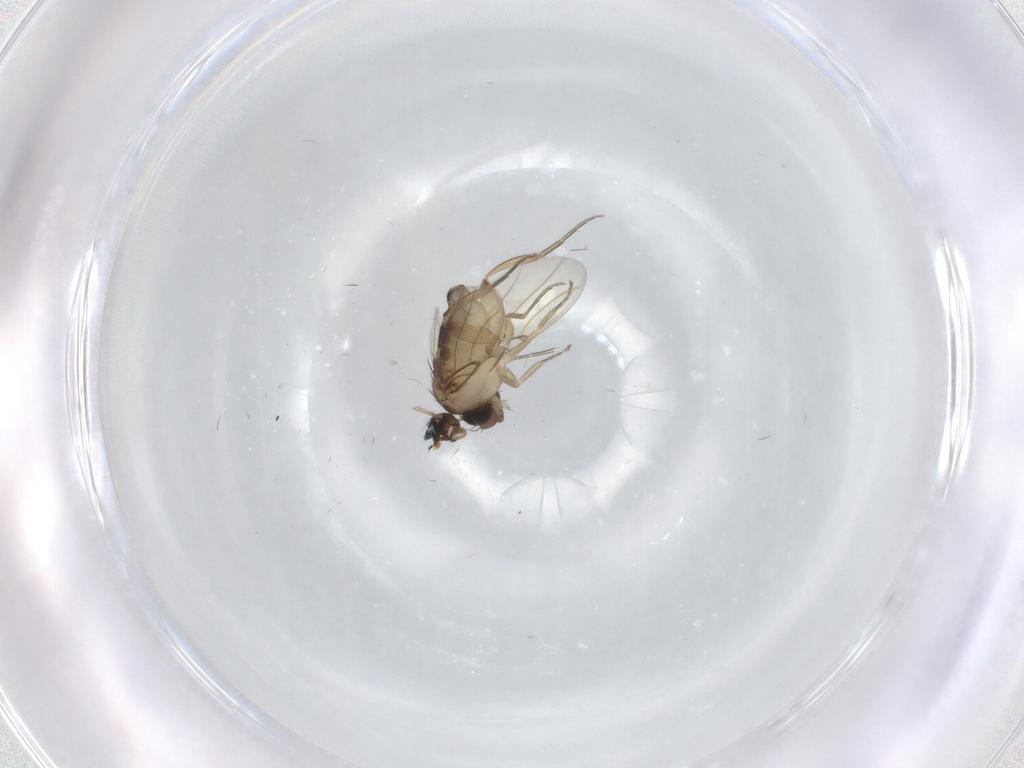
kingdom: Animalia
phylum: Arthropoda
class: Insecta
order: Diptera
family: Phoridae
